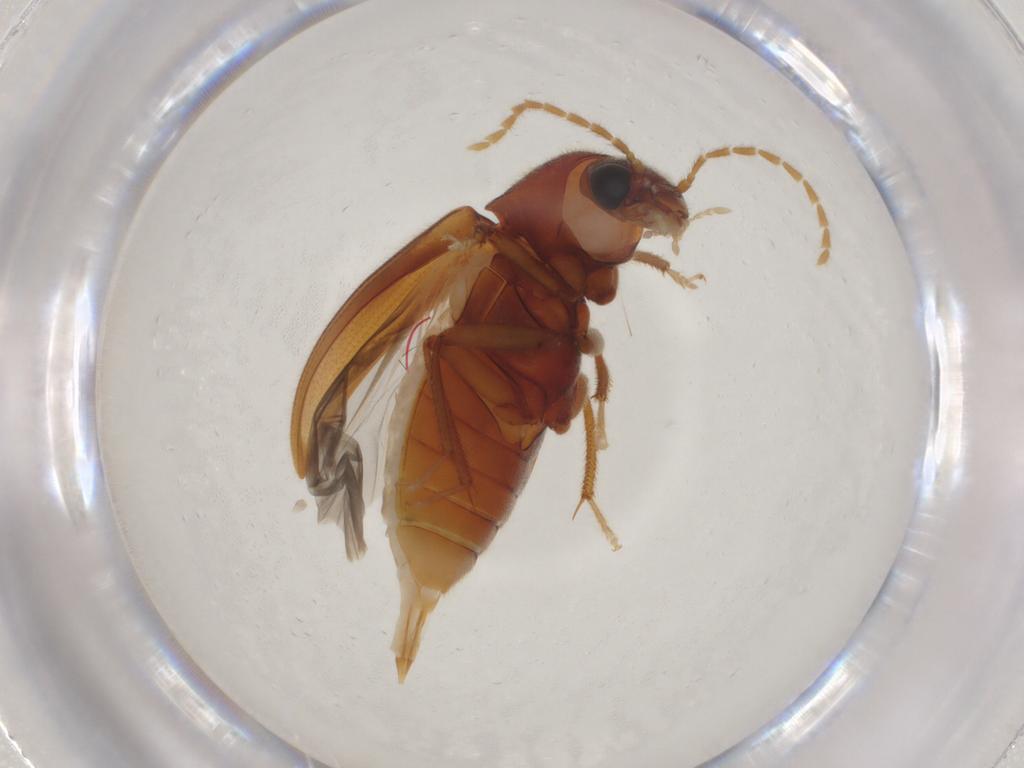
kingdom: Animalia
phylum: Arthropoda
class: Insecta
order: Coleoptera
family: Ptilodactylidae
